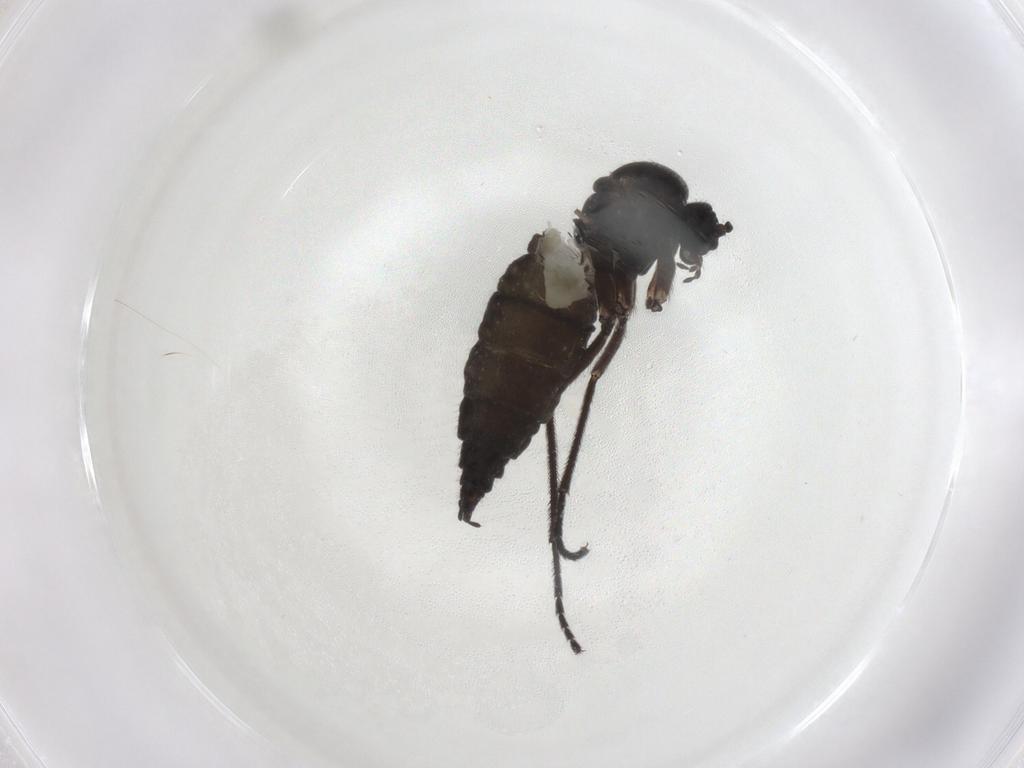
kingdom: Animalia
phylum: Arthropoda
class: Insecta
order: Diptera
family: Sciaridae
